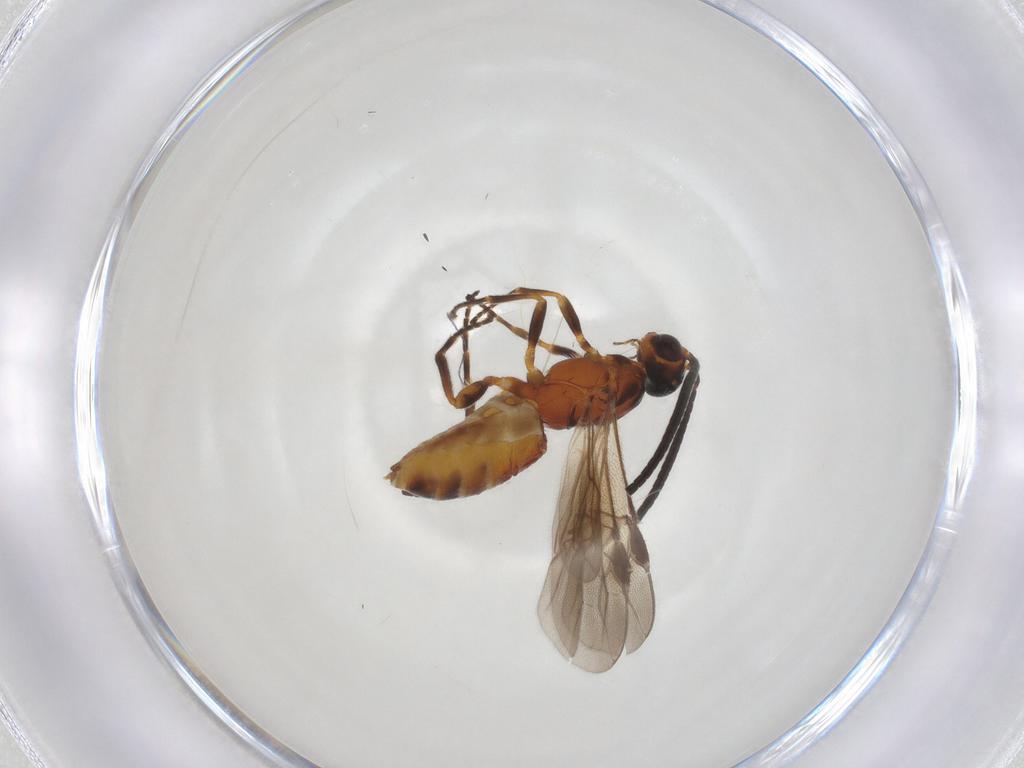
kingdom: Animalia
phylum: Arthropoda
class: Insecta
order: Hymenoptera
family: Braconidae
